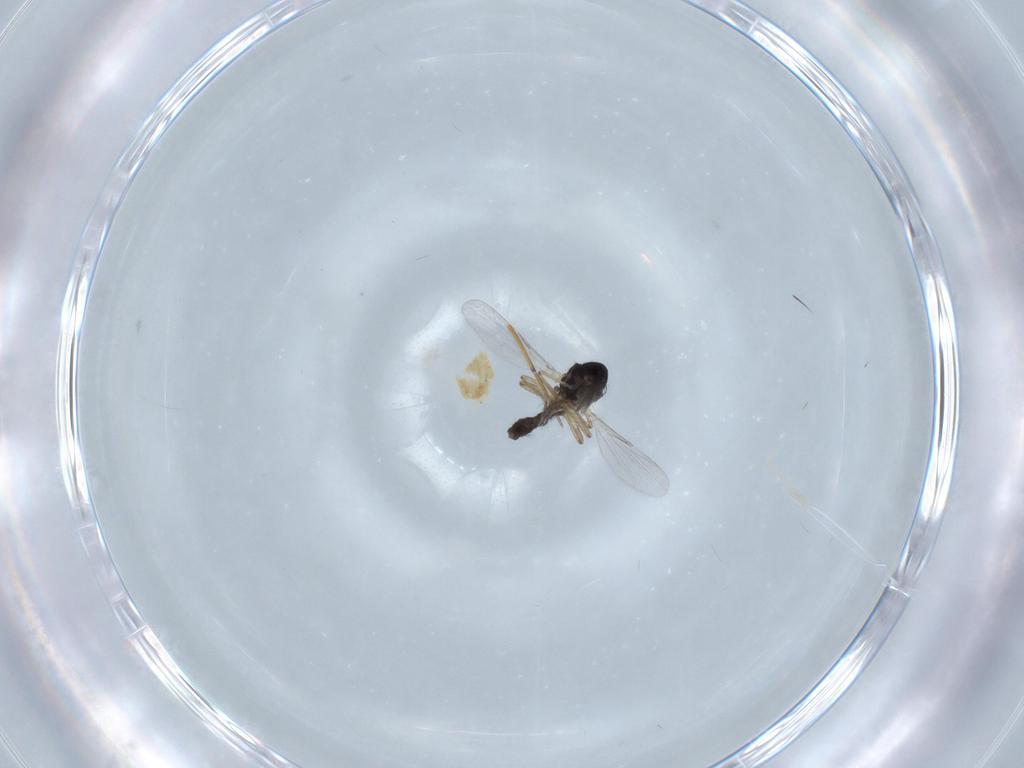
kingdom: Animalia
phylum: Arthropoda
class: Insecta
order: Diptera
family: Ceratopogonidae
